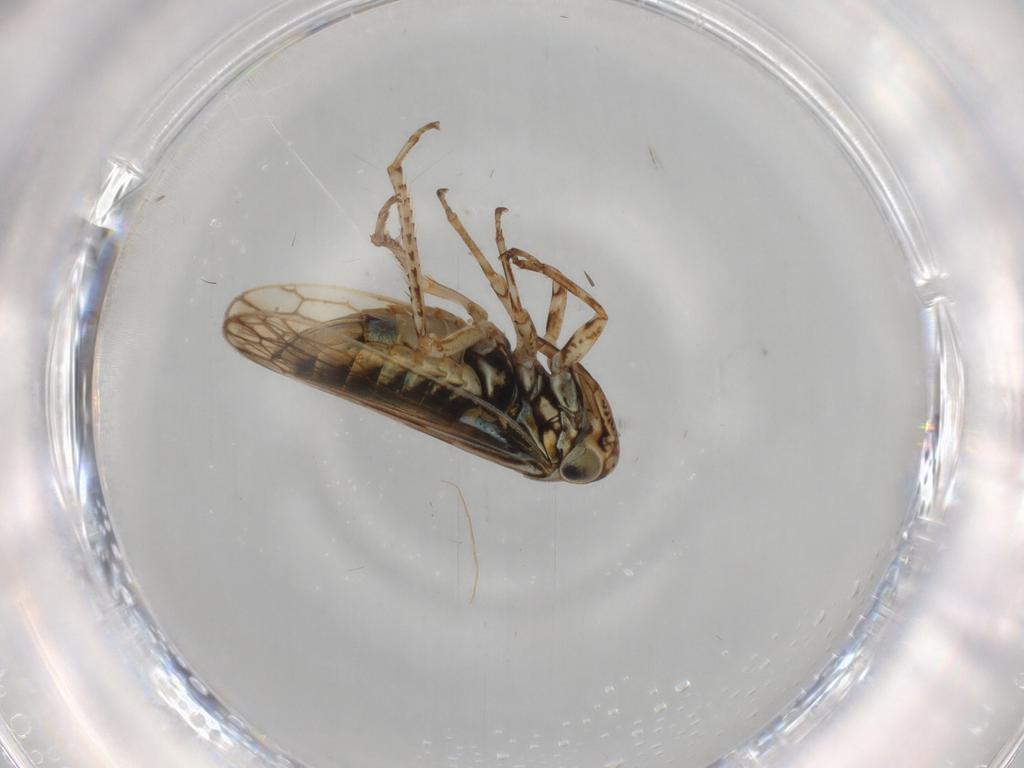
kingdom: Animalia
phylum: Arthropoda
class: Insecta
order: Hemiptera
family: Cicadellidae
